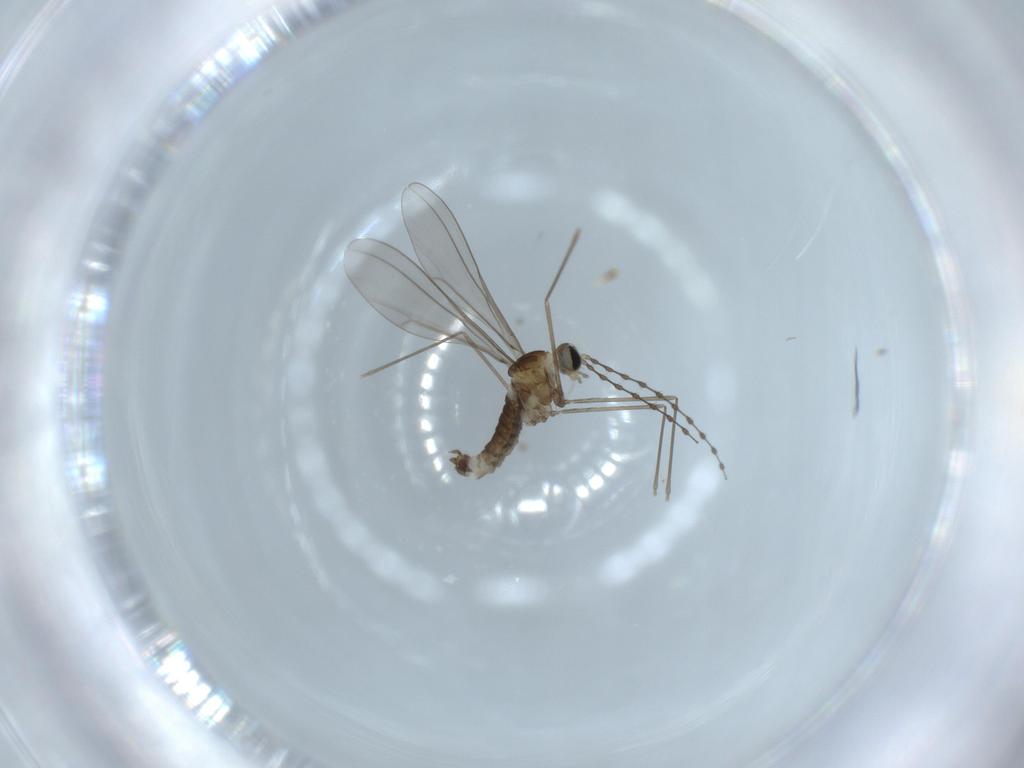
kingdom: Animalia
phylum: Arthropoda
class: Insecta
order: Diptera
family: Cecidomyiidae
